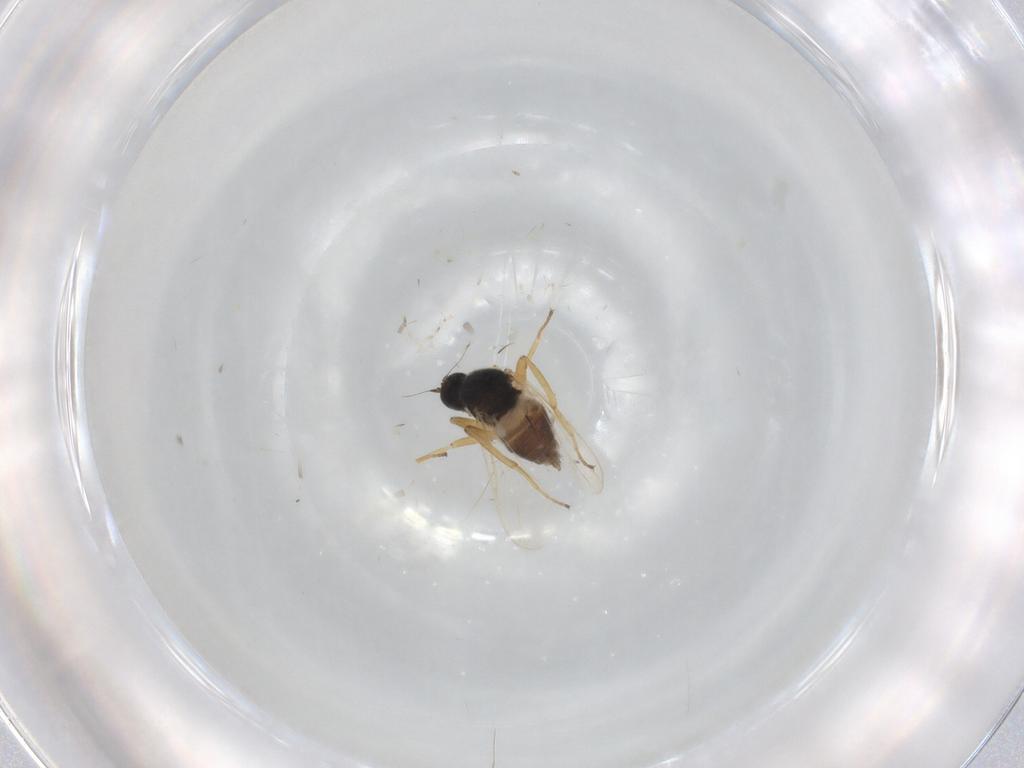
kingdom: Animalia
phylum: Arthropoda
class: Insecta
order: Diptera
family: Hybotidae
